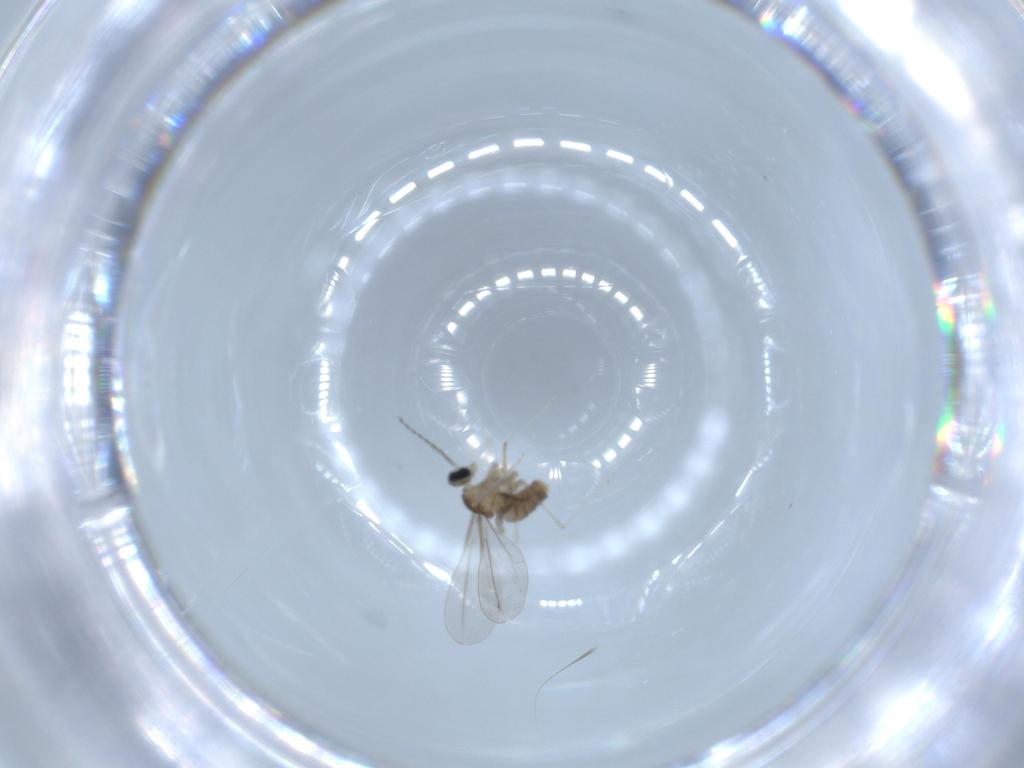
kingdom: Animalia
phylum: Arthropoda
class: Insecta
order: Diptera
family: Chironomidae
